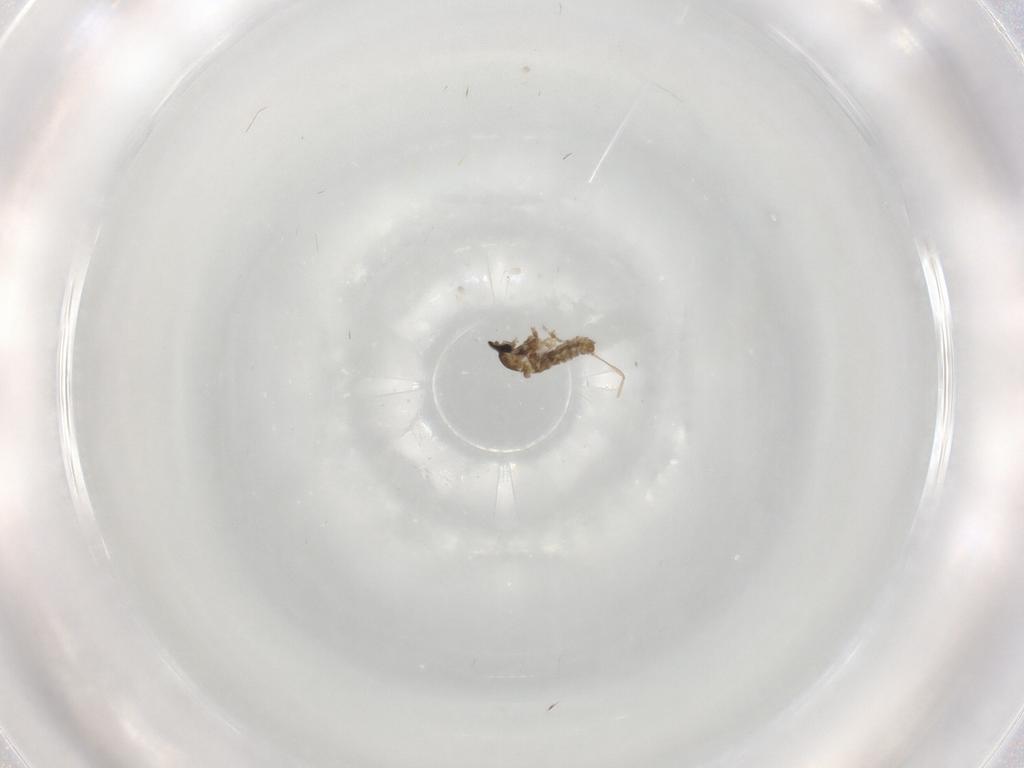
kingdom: Animalia
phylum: Arthropoda
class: Insecta
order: Diptera
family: Cecidomyiidae
